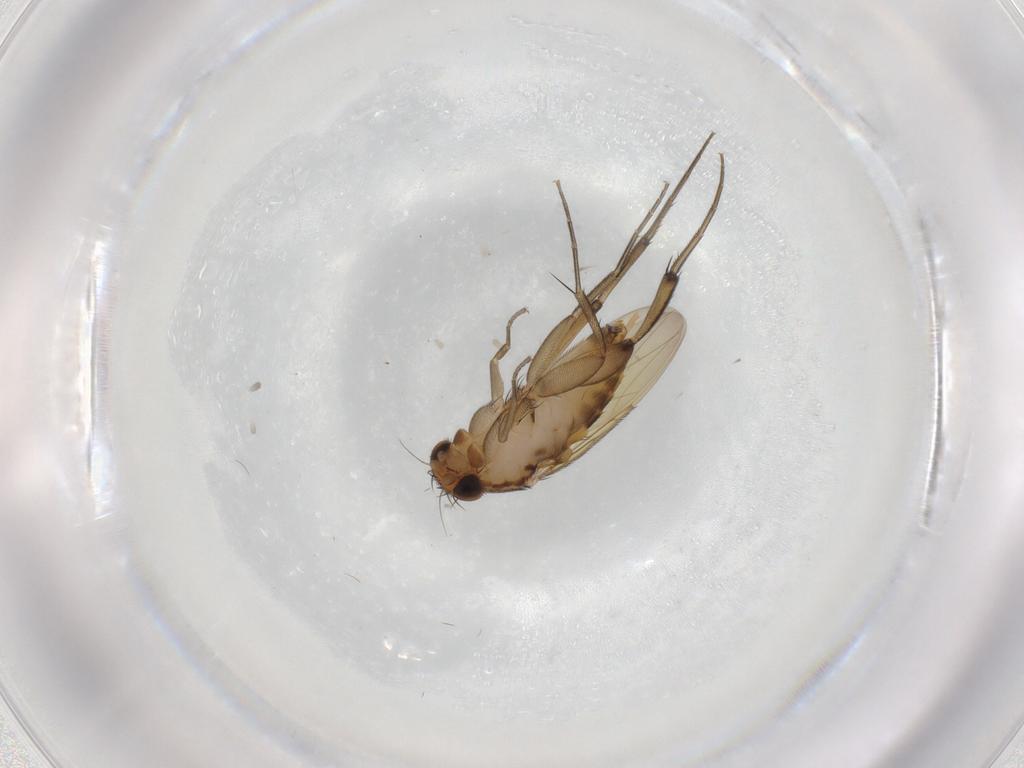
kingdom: Animalia
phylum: Arthropoda
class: Insecta
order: Diptera
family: Phoridae
